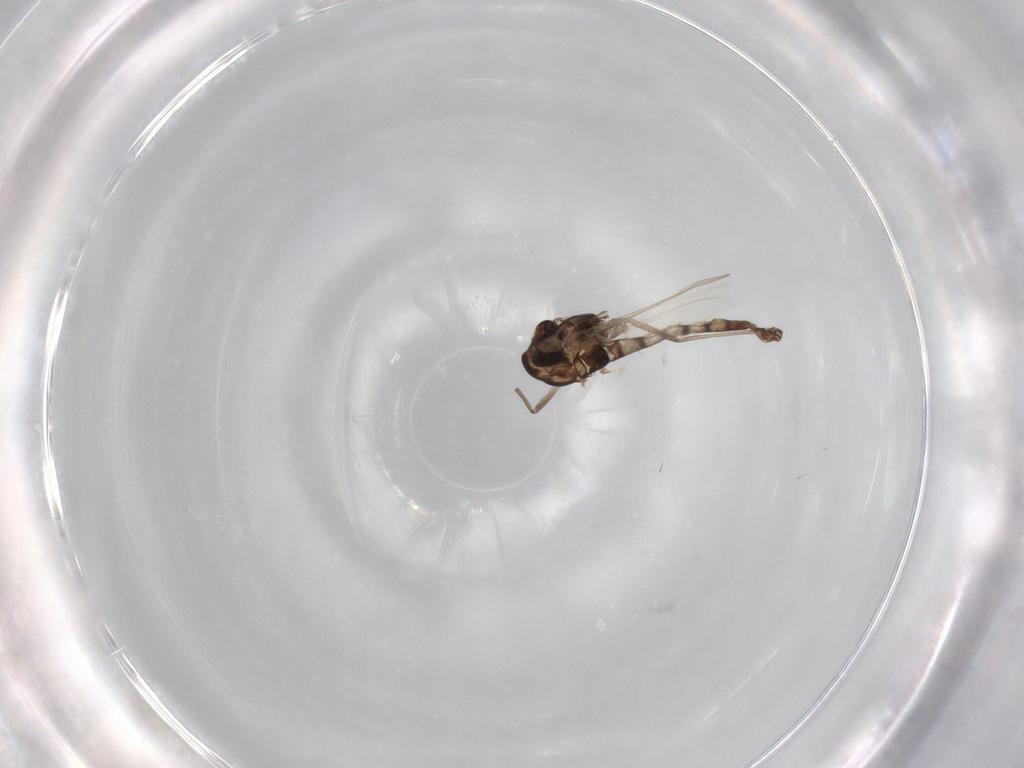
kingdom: Animalia
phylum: Arthropoda
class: Insecta
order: Diptera
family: Chironomidae
